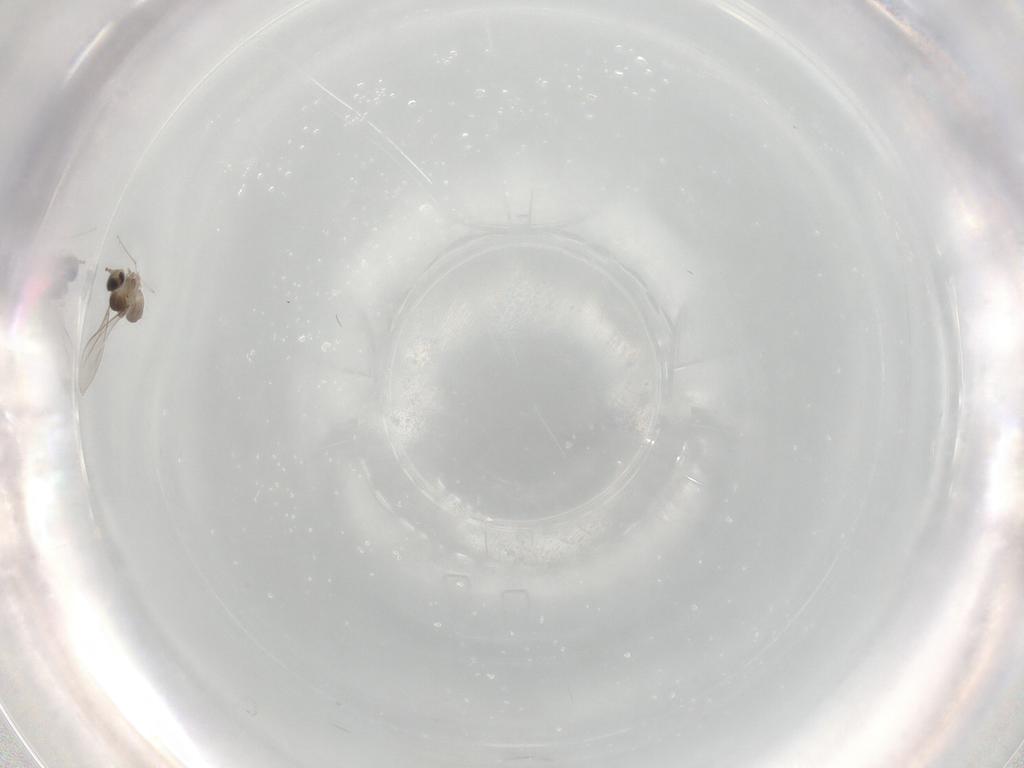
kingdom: Animalia
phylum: Arthropoda
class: Insecta
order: Diptera
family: Cecidomyiidae
